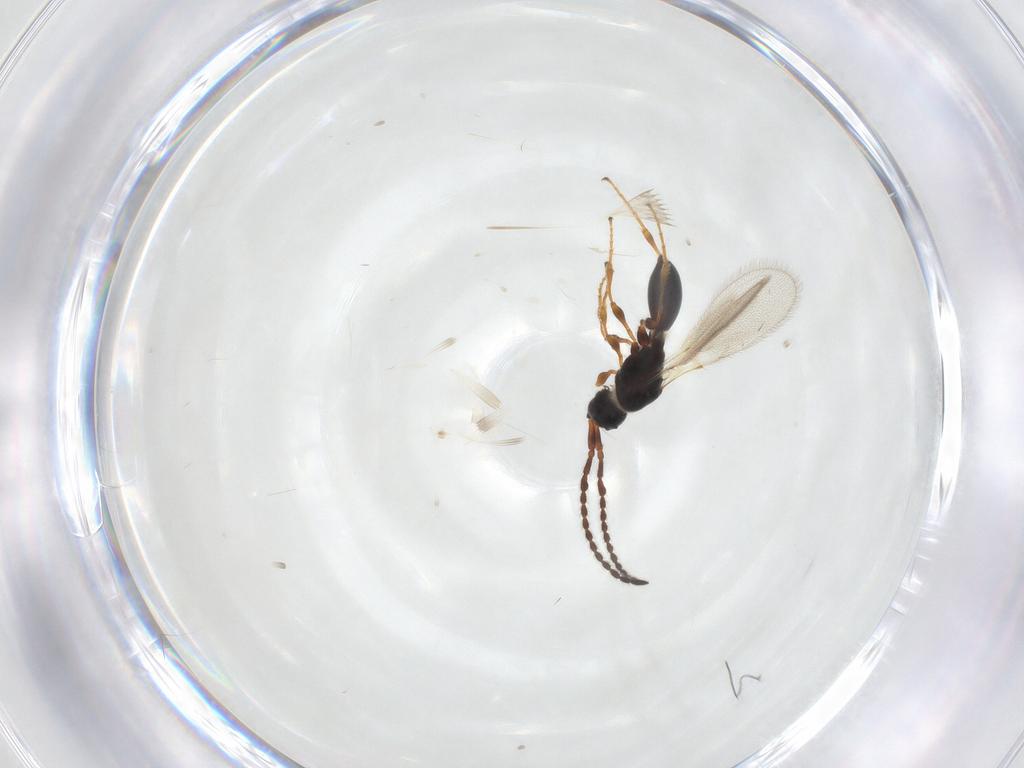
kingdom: Animalia
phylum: Arthropoda
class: Insecta
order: Hymenoptera
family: Diapriidae
